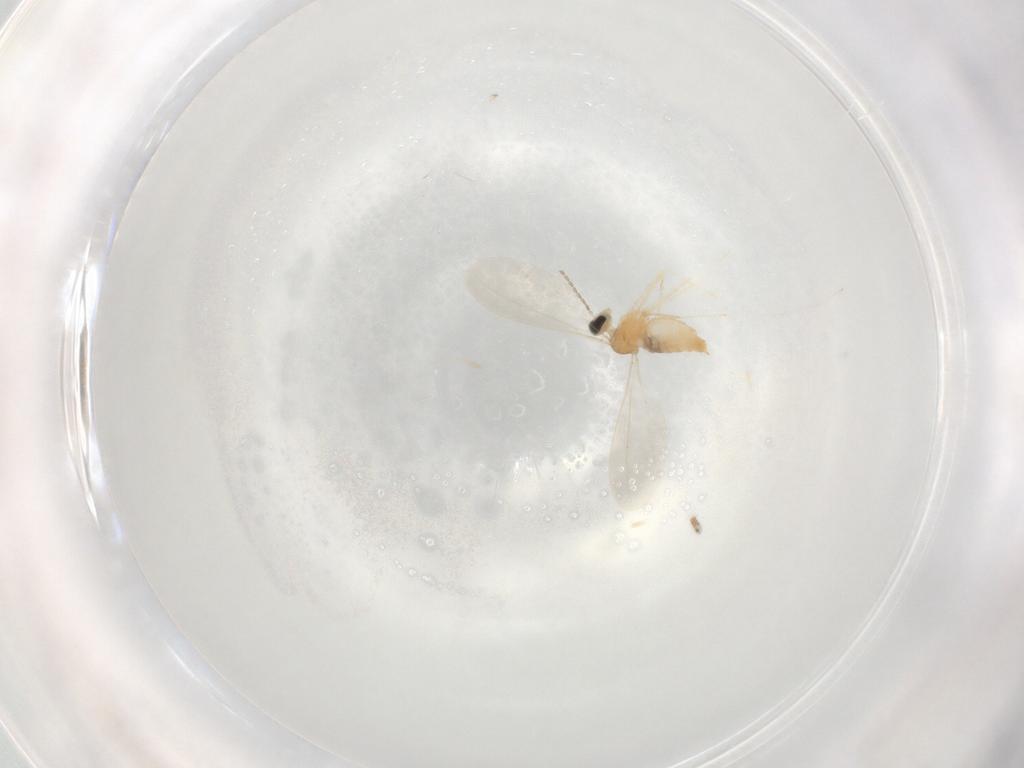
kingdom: Animalia
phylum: Arthropoda
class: Insecta
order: Diptera
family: Cecidomyiidae
